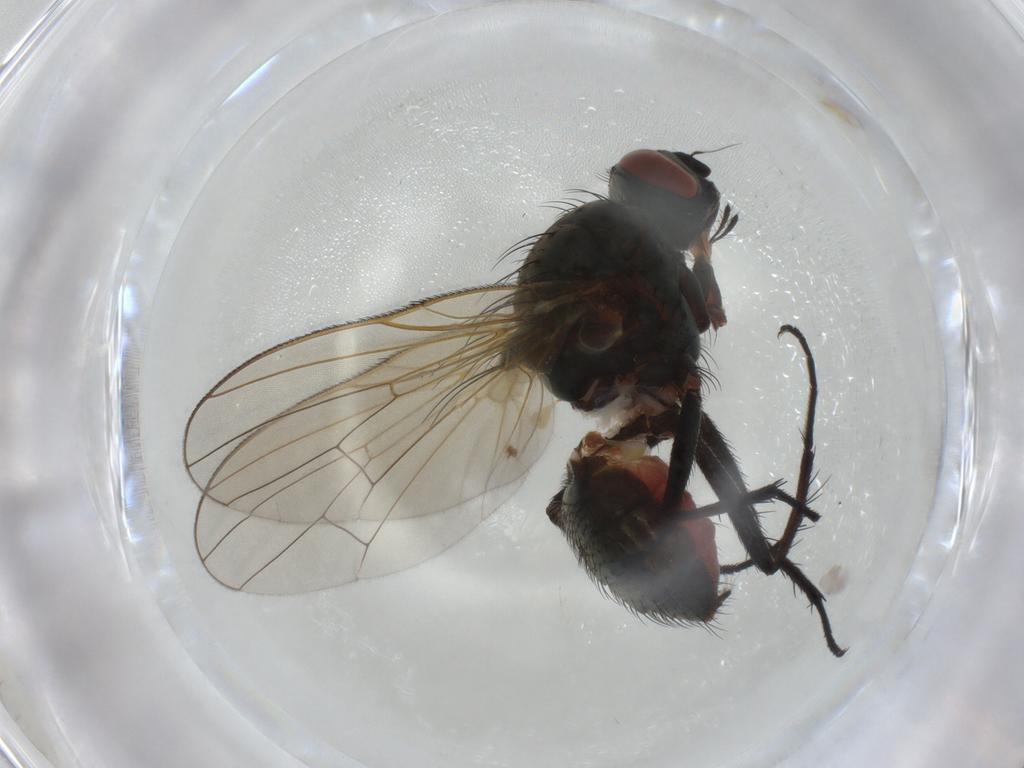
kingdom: Animalia
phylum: Arthropoda
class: Insecta
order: Diptera
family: Anthomyiidae
